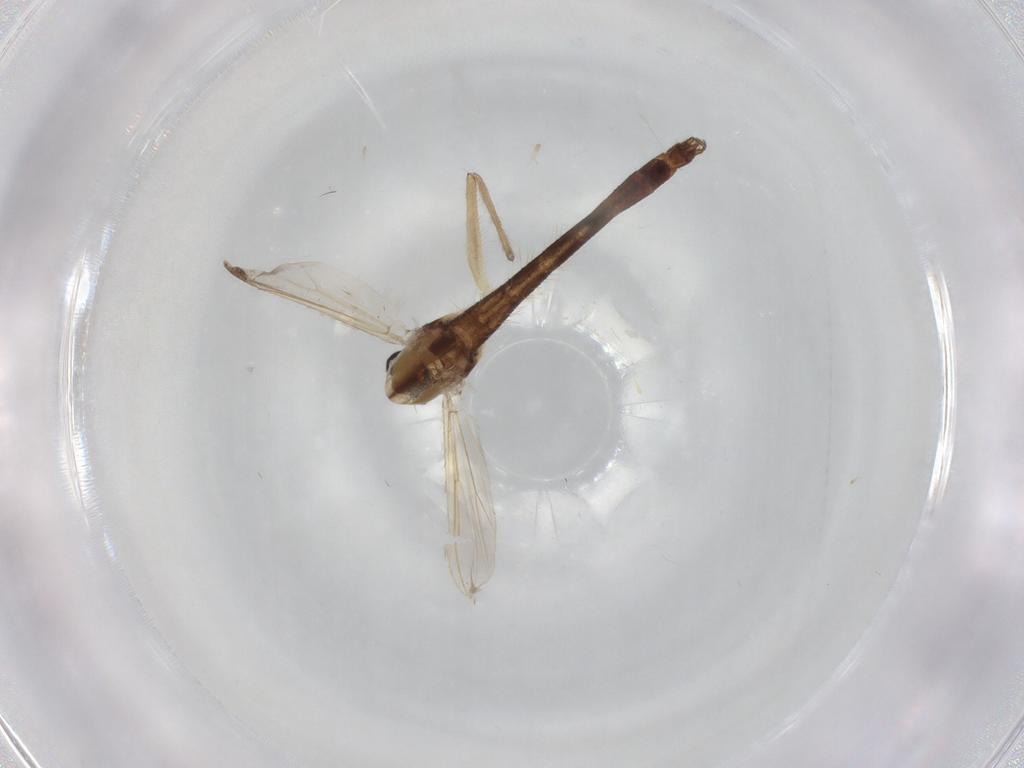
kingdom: Animalia
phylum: Arthropoda
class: Insecta
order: Diptera
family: Chironomidae
